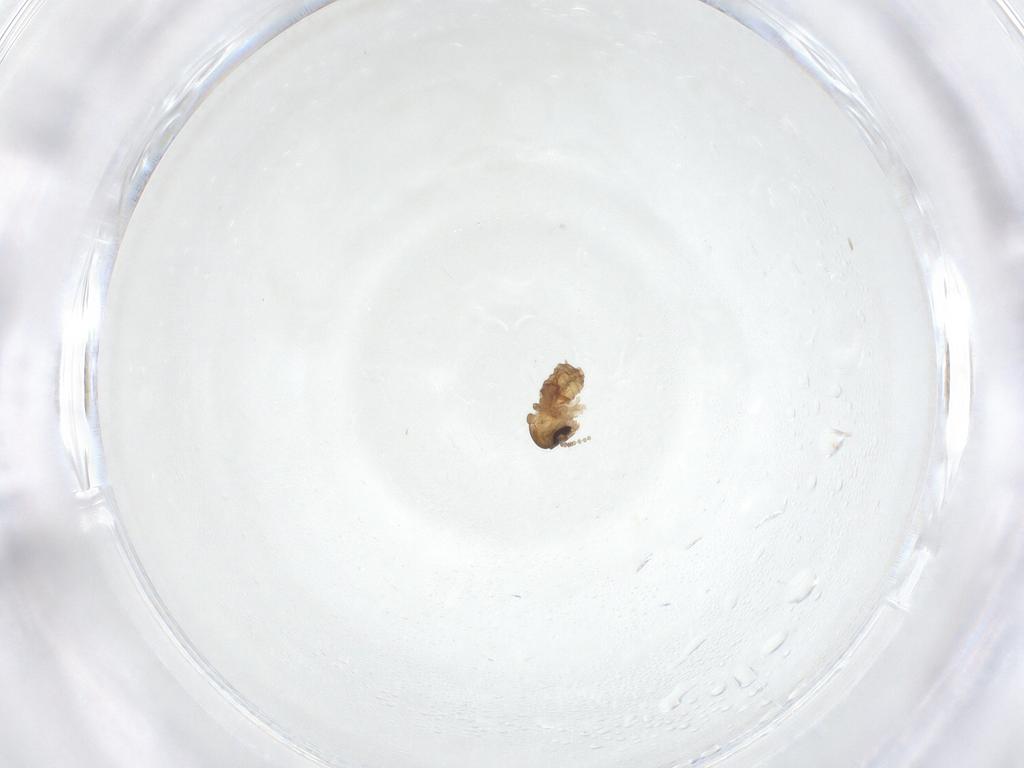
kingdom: Animalia
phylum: Arthropoda
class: Insecta
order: Diptera
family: Psychodidae
